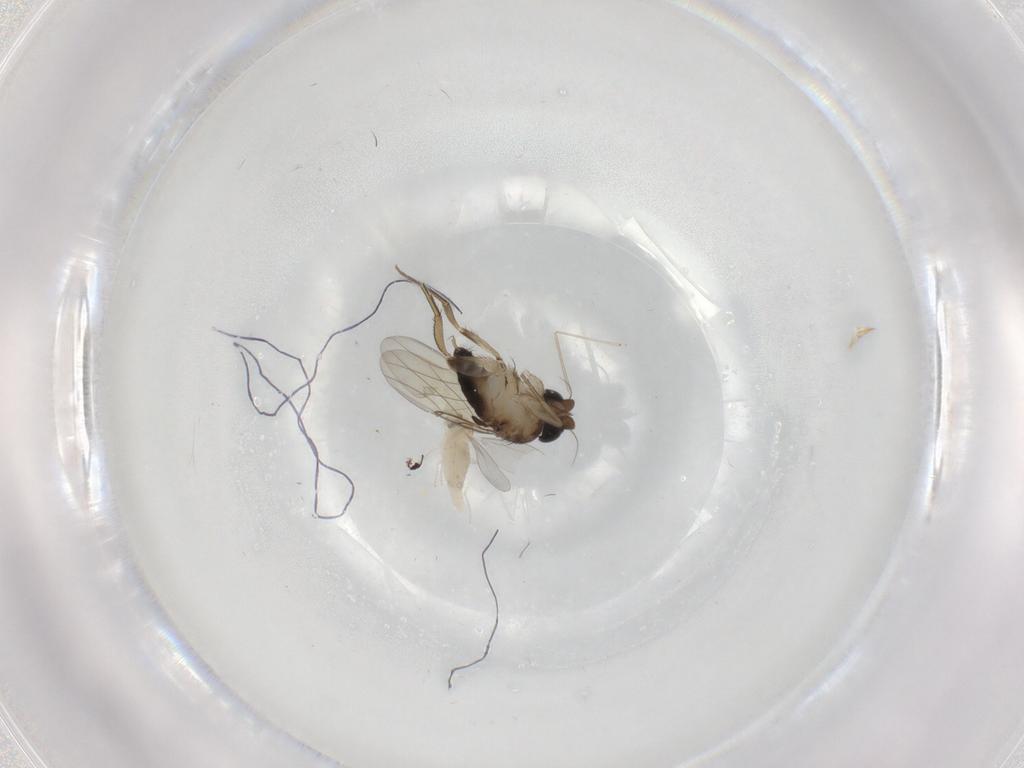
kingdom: Animalia
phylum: Arthropoda
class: Insecta
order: Diptera
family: Phoridae
